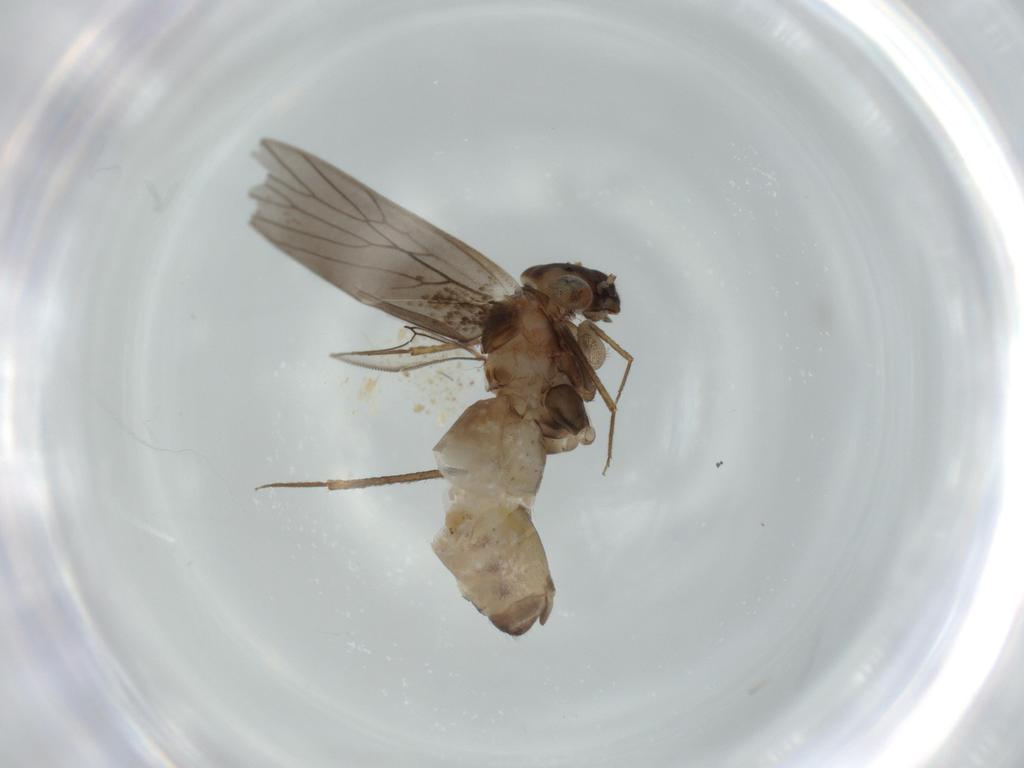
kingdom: Animalia
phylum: Arthropoda
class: Insecta
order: Psocodea
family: Lepidopsocidae
